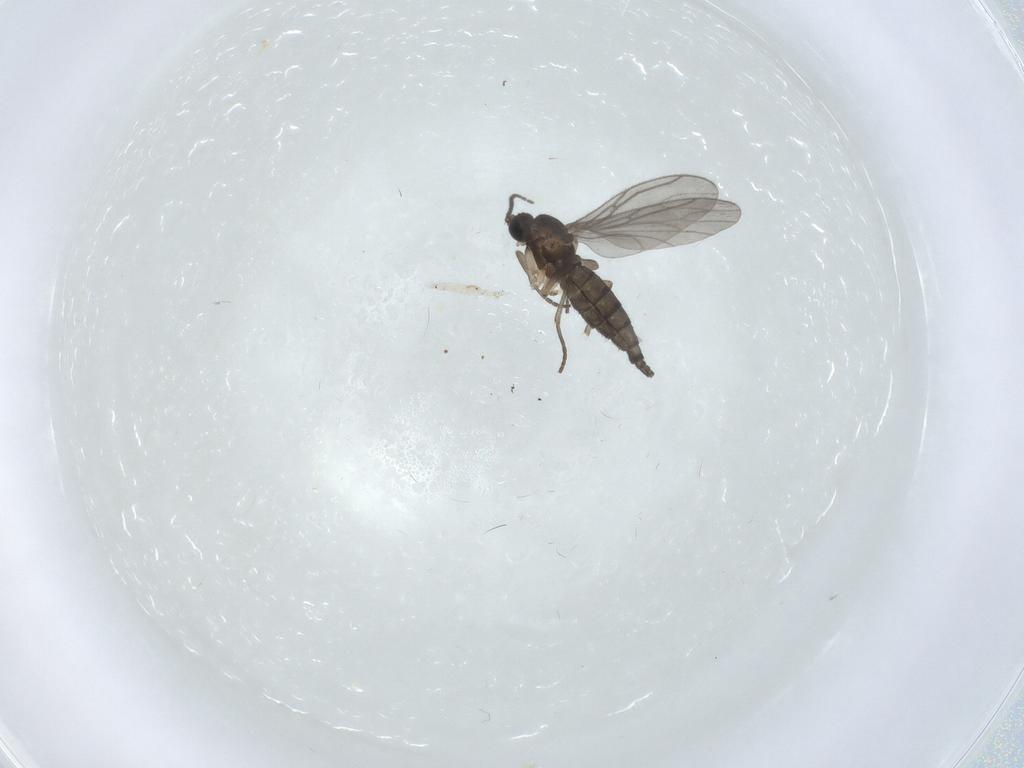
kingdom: Animalia
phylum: Arthropoda
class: Insecta
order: Diptera
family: Sciaridae
